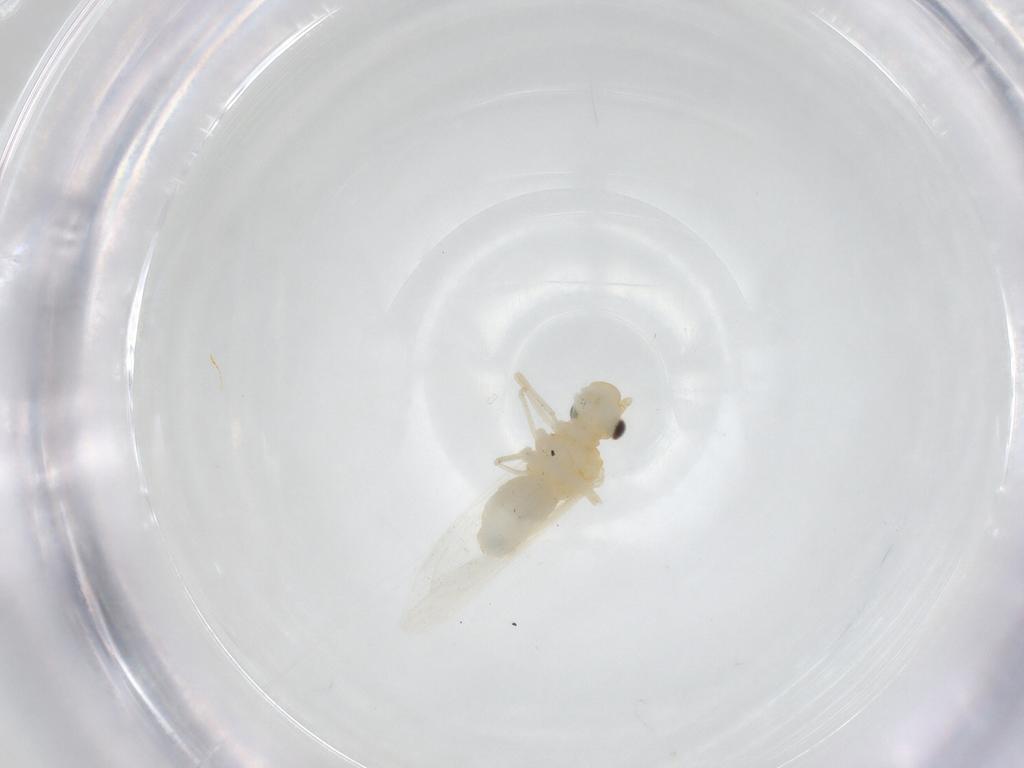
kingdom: Animalia
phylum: Arthropoda
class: Insecta
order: Psocodea
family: Caeciliusidae
